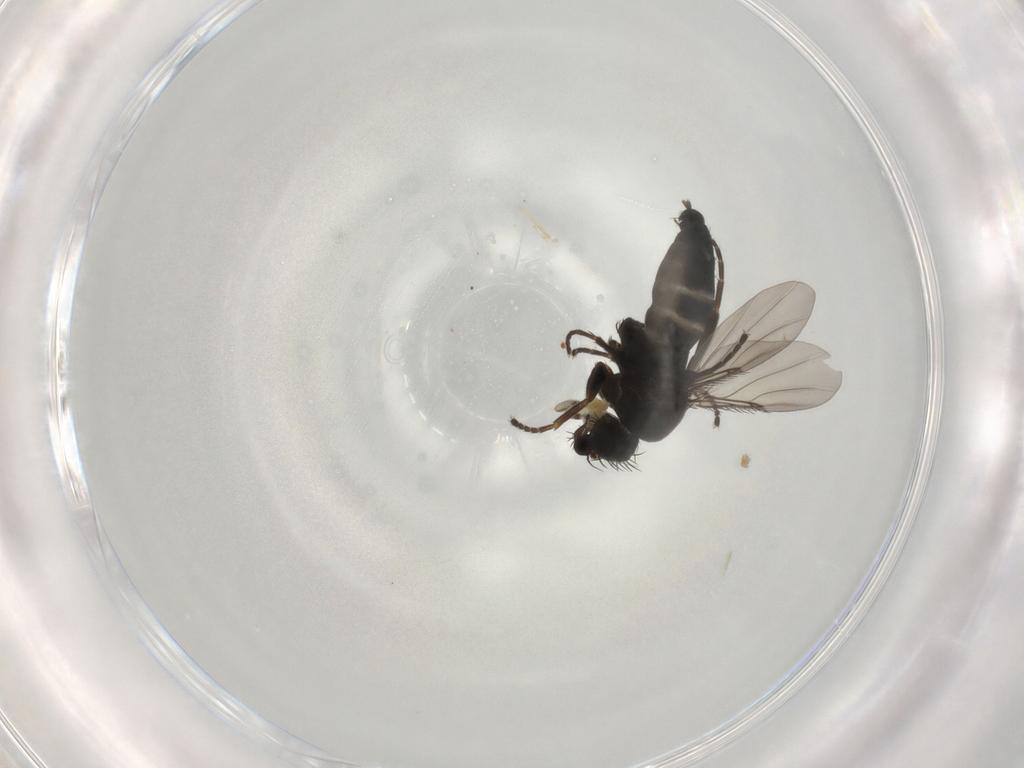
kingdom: Animalia
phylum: Arthropoda
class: Insecta
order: Diptera
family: Phoridae
